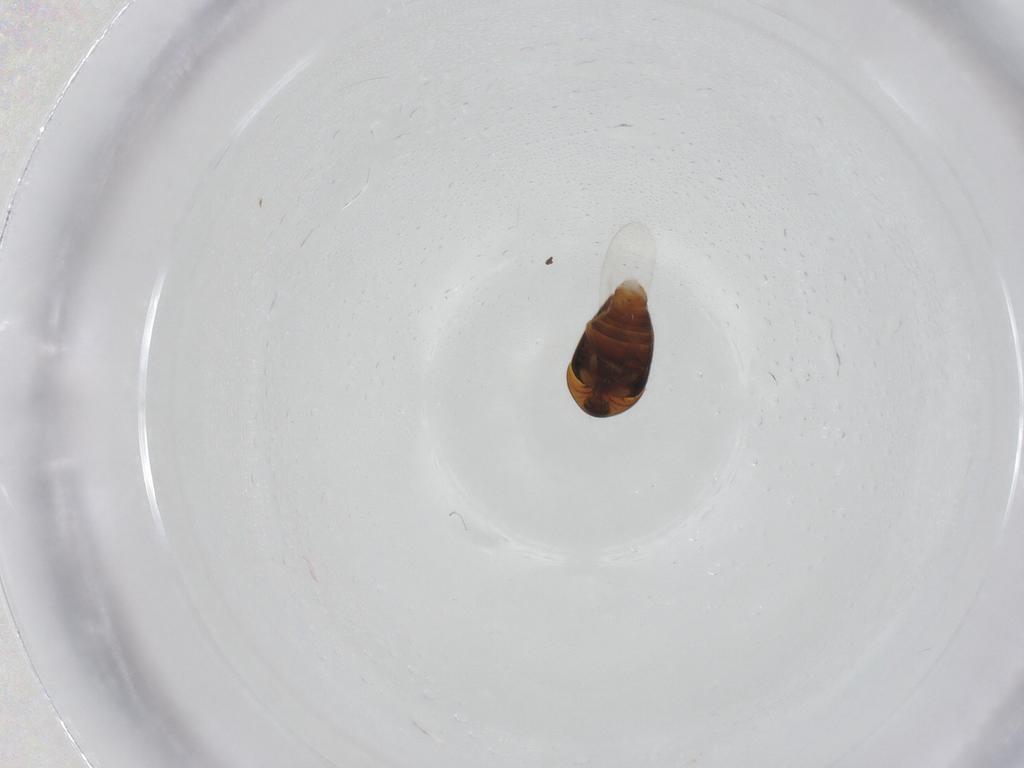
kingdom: Animalia
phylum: Arthropoda
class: Insecta
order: Coleoptera
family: Corylophidae
